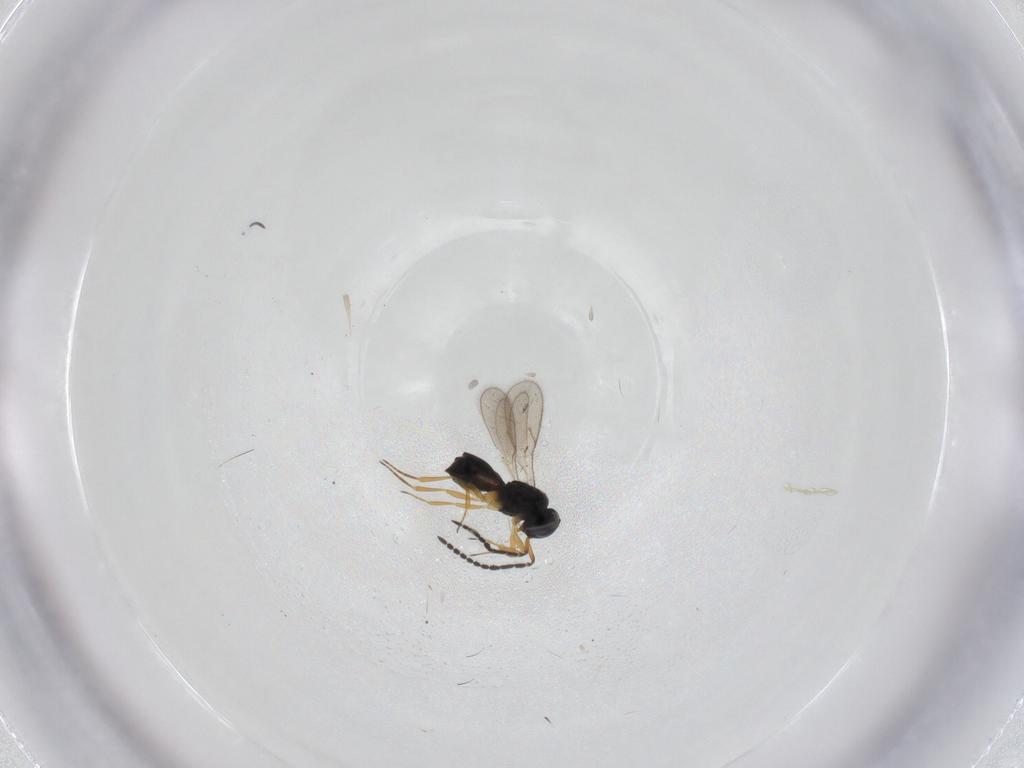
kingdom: Animalia
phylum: Arthropoda
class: Insecta
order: Hymenoptera
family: Scelionidae
